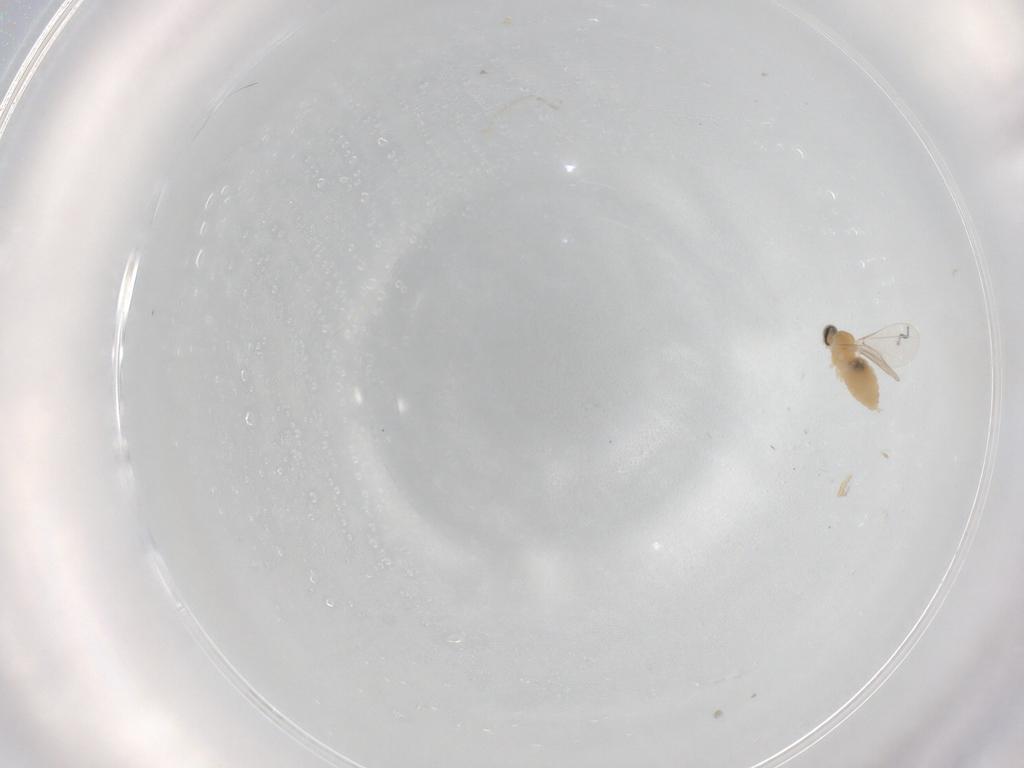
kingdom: Animalia
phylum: Arthropoda
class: Insecta
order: Diptera
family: Cecidomyiidae
